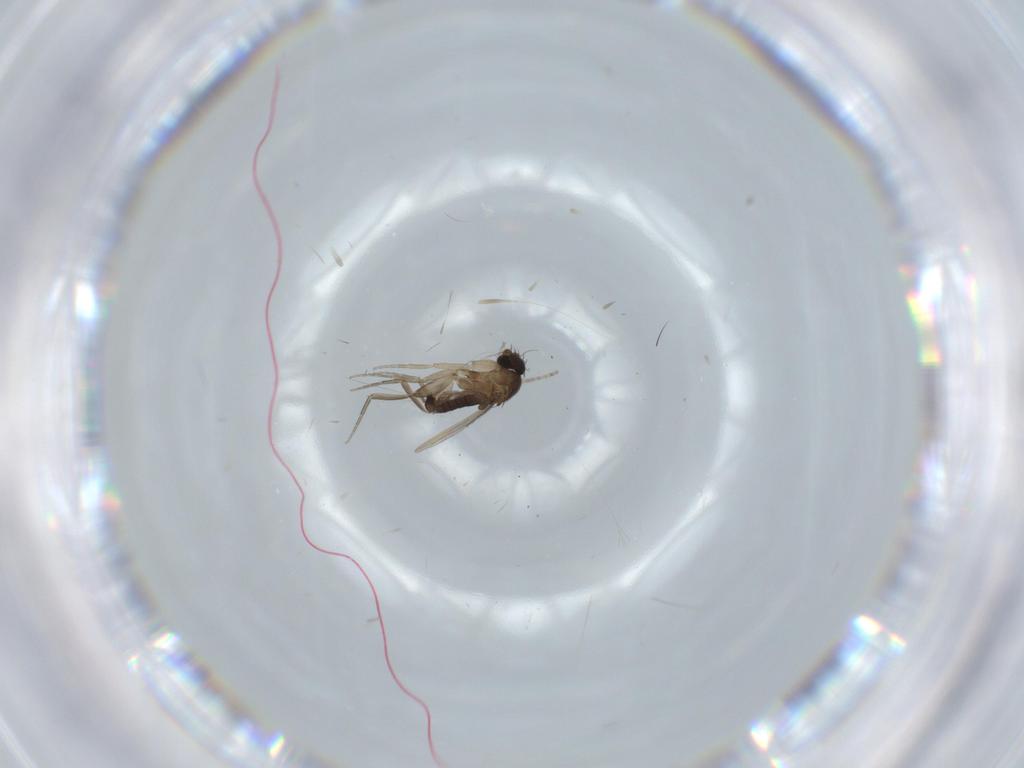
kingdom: Animalia
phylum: Arthropoda
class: Insecta
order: Diptera
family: Phoridae
